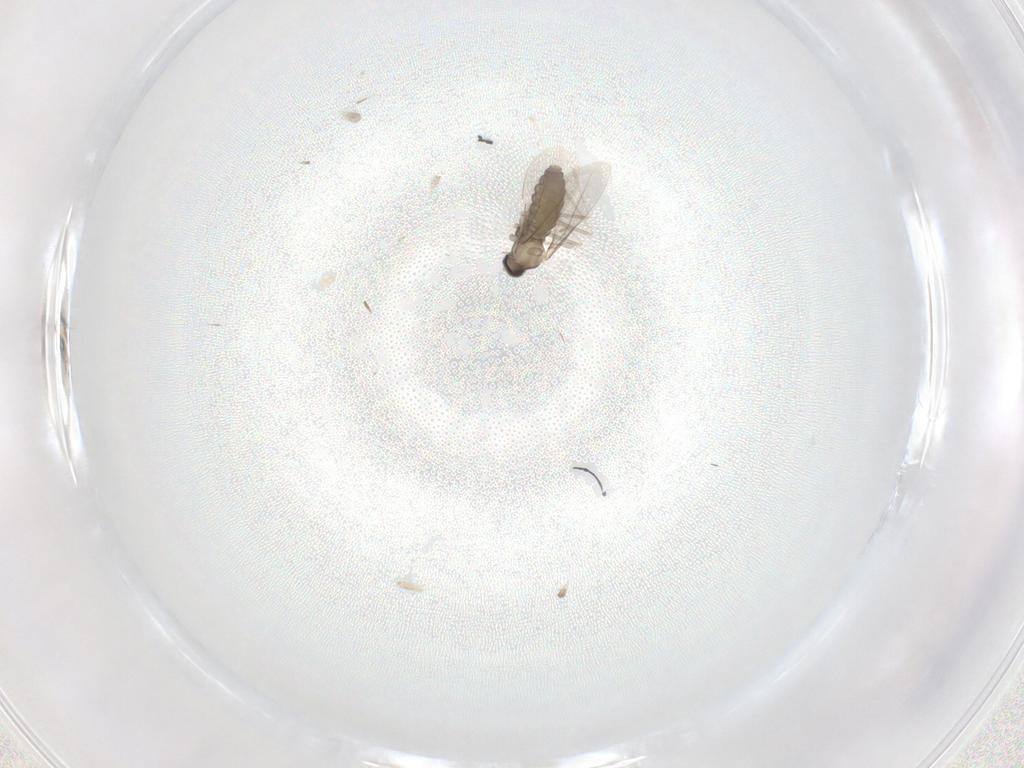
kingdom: Animalia
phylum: Arthropoda
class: Insecta
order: Diptera
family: Cecidomyiidae
